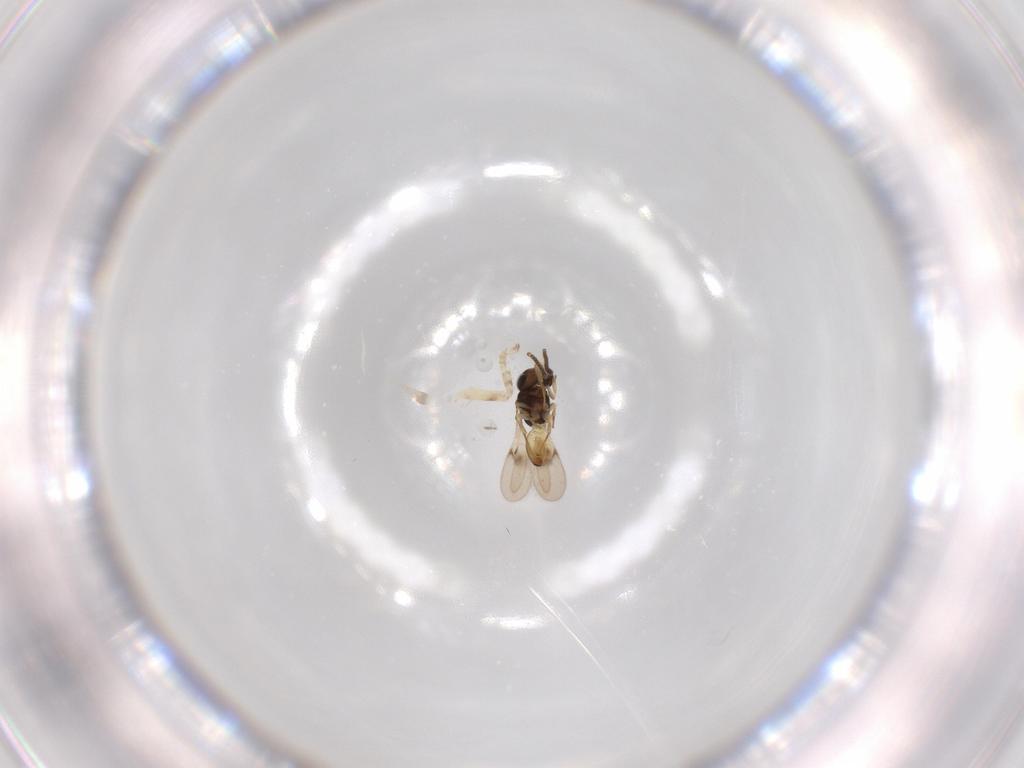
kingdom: Animalia
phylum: Arthropoda
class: Insecta
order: Hymenoptera
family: Scelionidae
